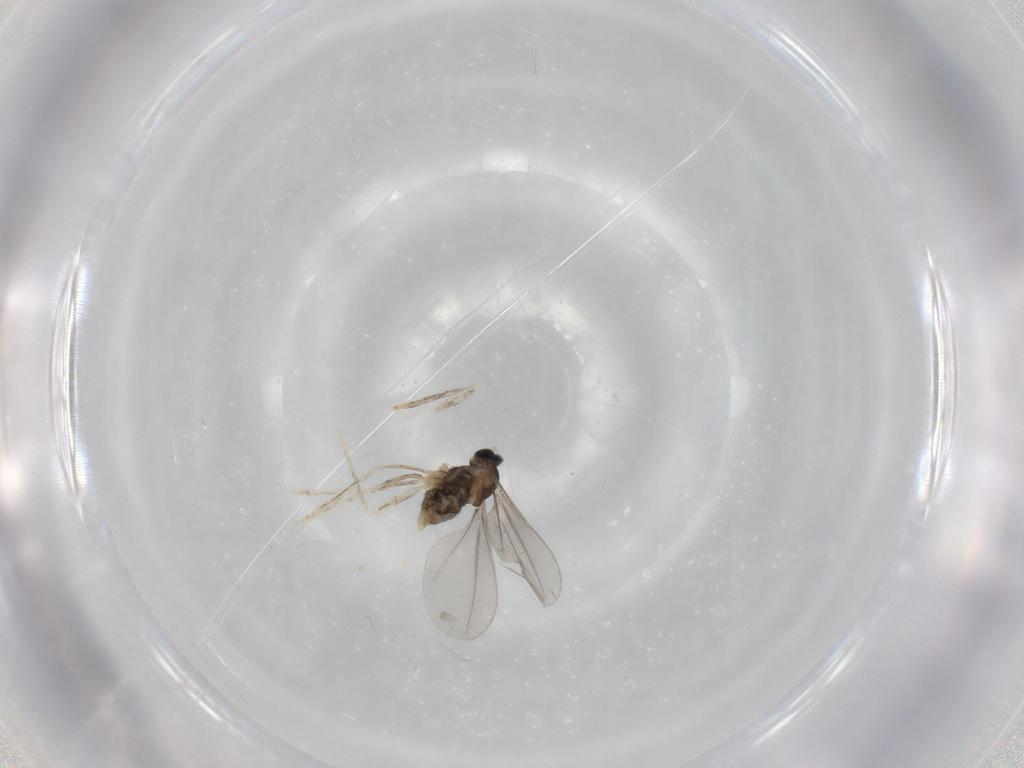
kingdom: Animalia
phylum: Arthropoda
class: Insecta
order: Diptera
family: Cecidomyiidae
